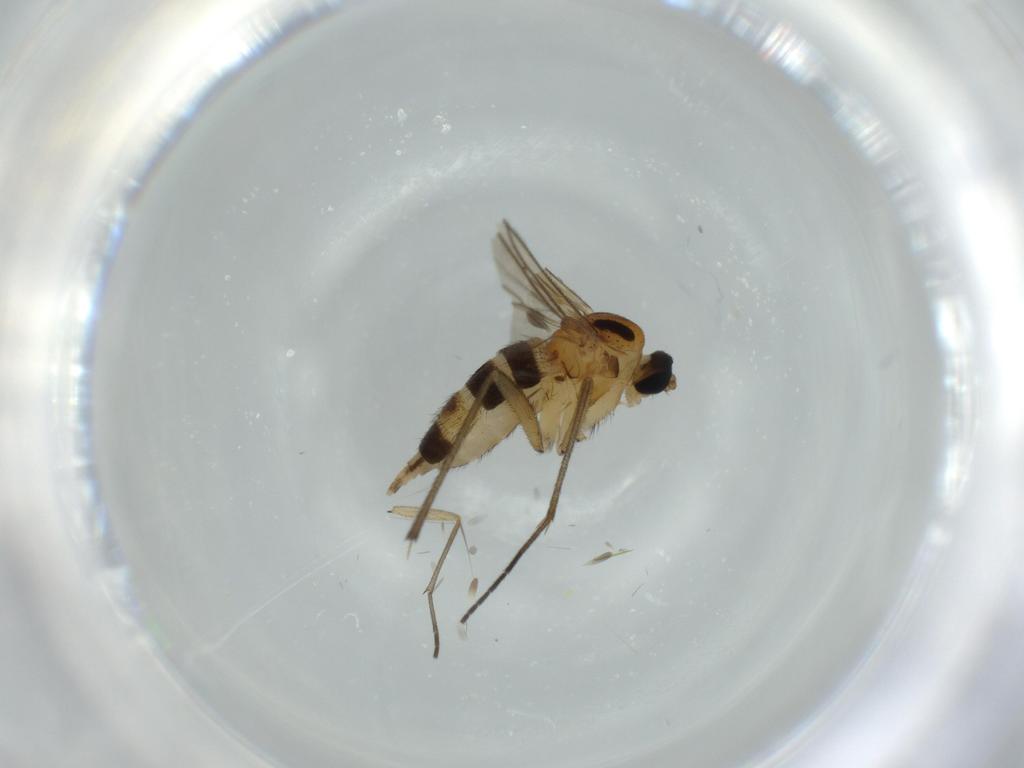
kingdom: Animalia
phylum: Arthropoda
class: Insecta
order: Diptera
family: Sciaridae
